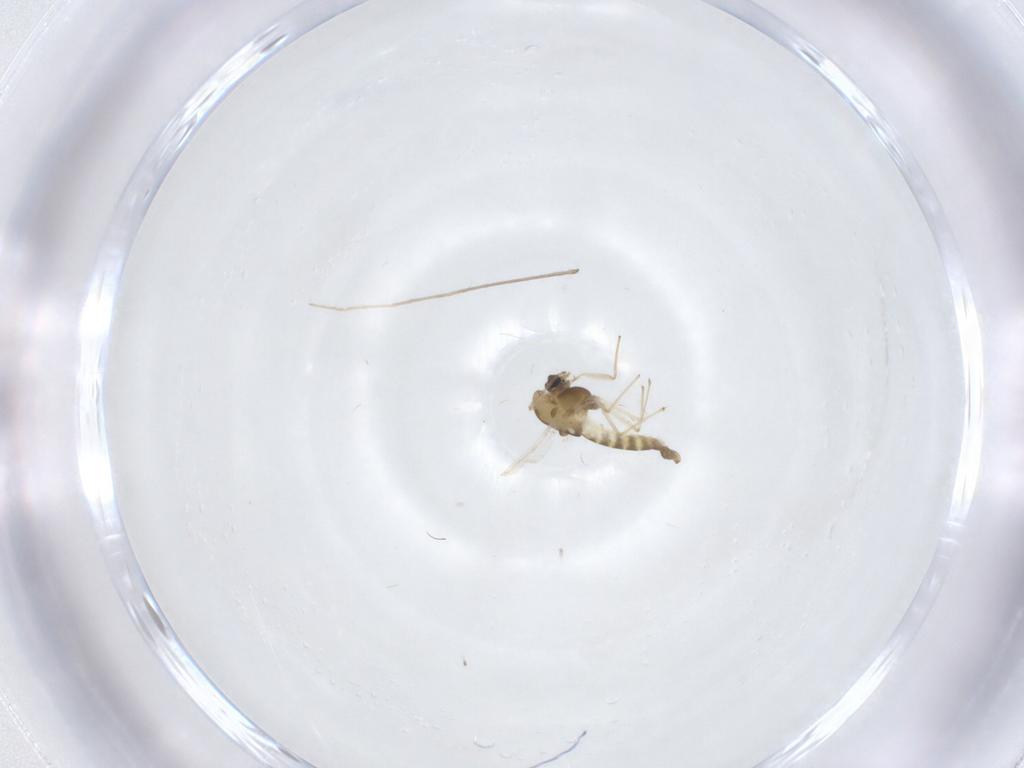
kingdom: Animalia
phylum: Arthropoda
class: Insecta
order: Diptera
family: Chironomidae
